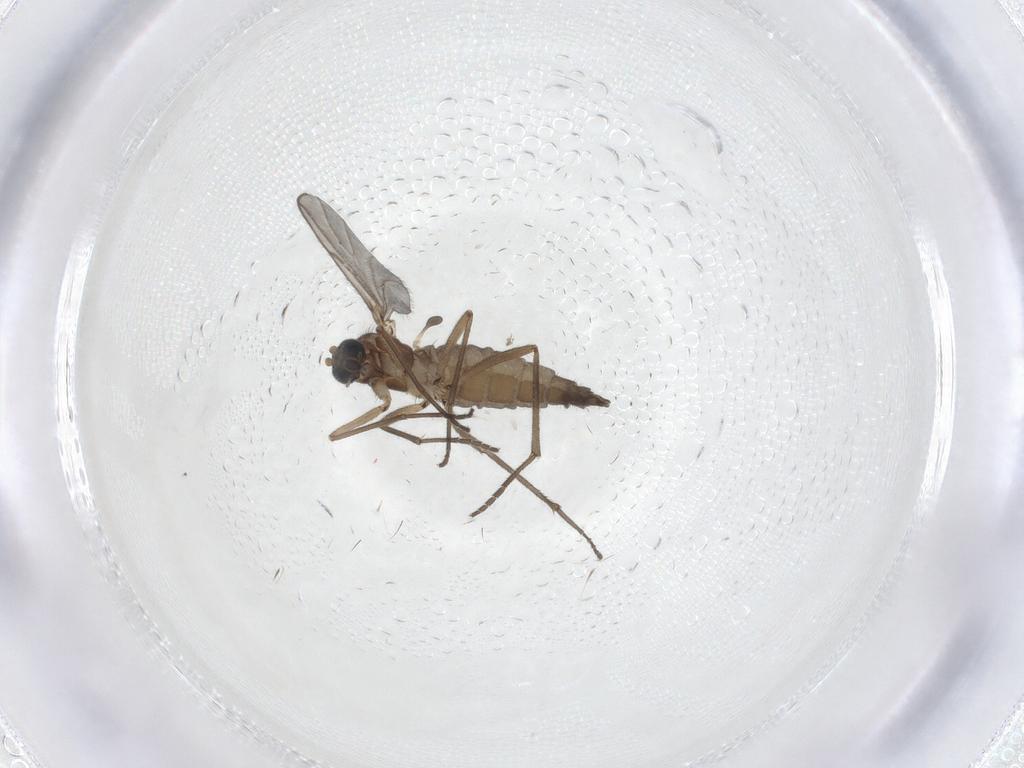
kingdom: Animalia
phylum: Arthropoda
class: Insecta
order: Diptera
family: Sciaridae
